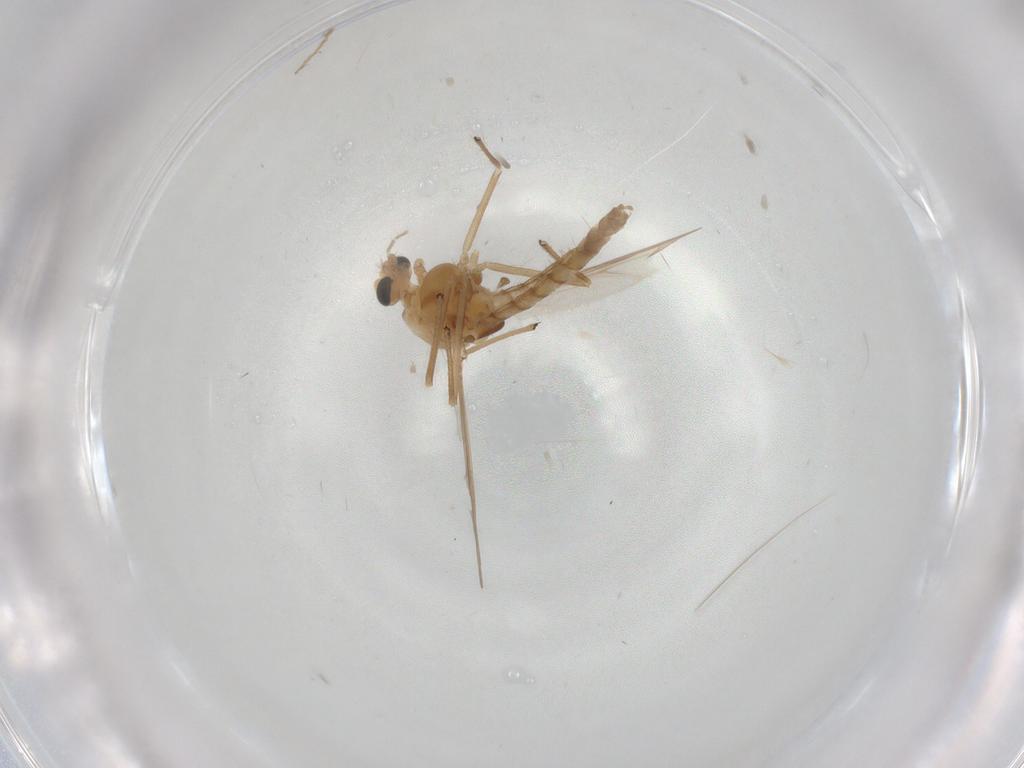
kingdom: Animalia
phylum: Arthropoda
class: Insecta
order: Diptera
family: Chironomidae
